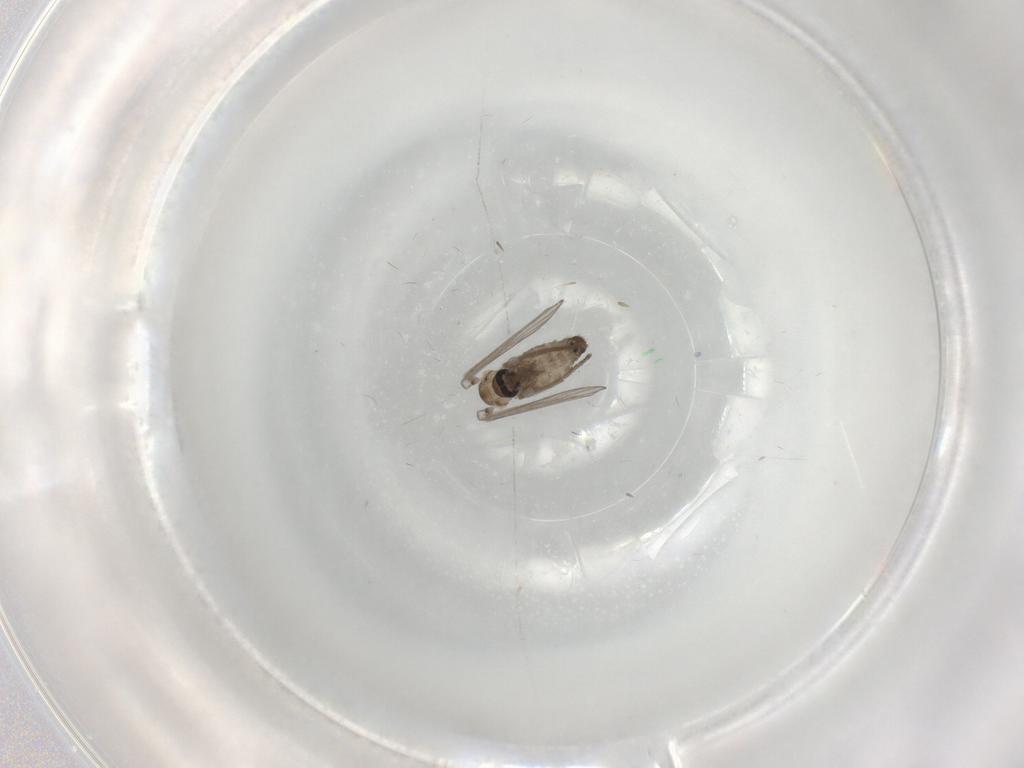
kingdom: Animalia
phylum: Arthropoda
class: Insecta
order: Diptera
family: Psychodidae
